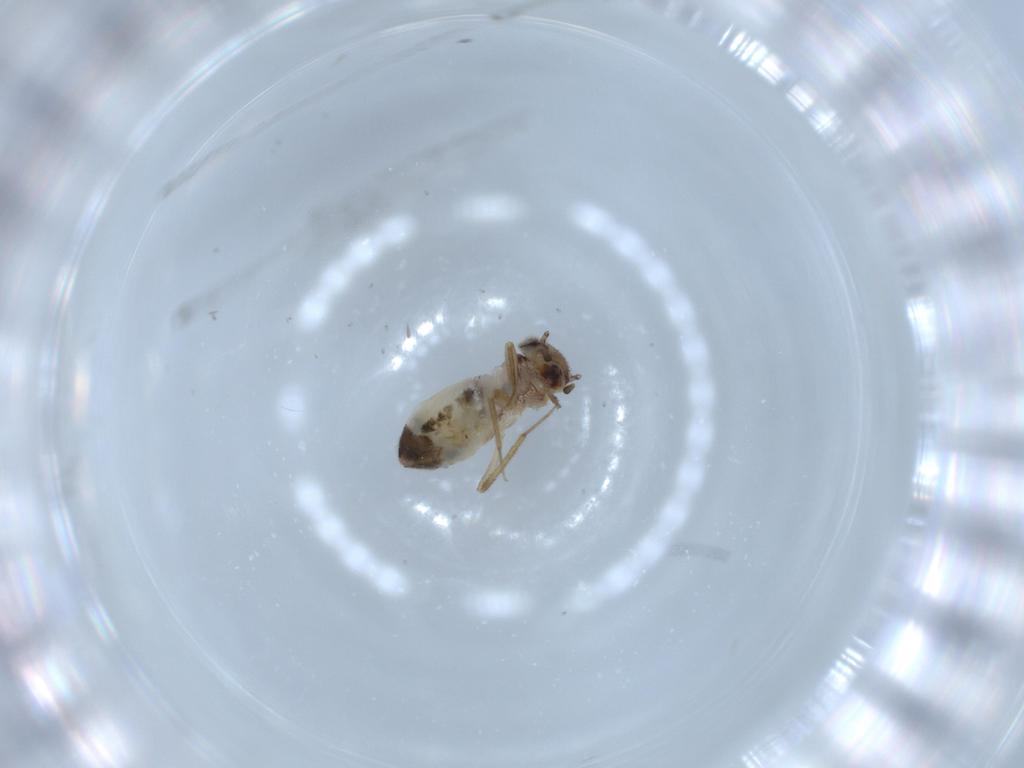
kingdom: Animalia
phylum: Arthropoda
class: Insecta
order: Psocodea
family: Lepidopsocidae
